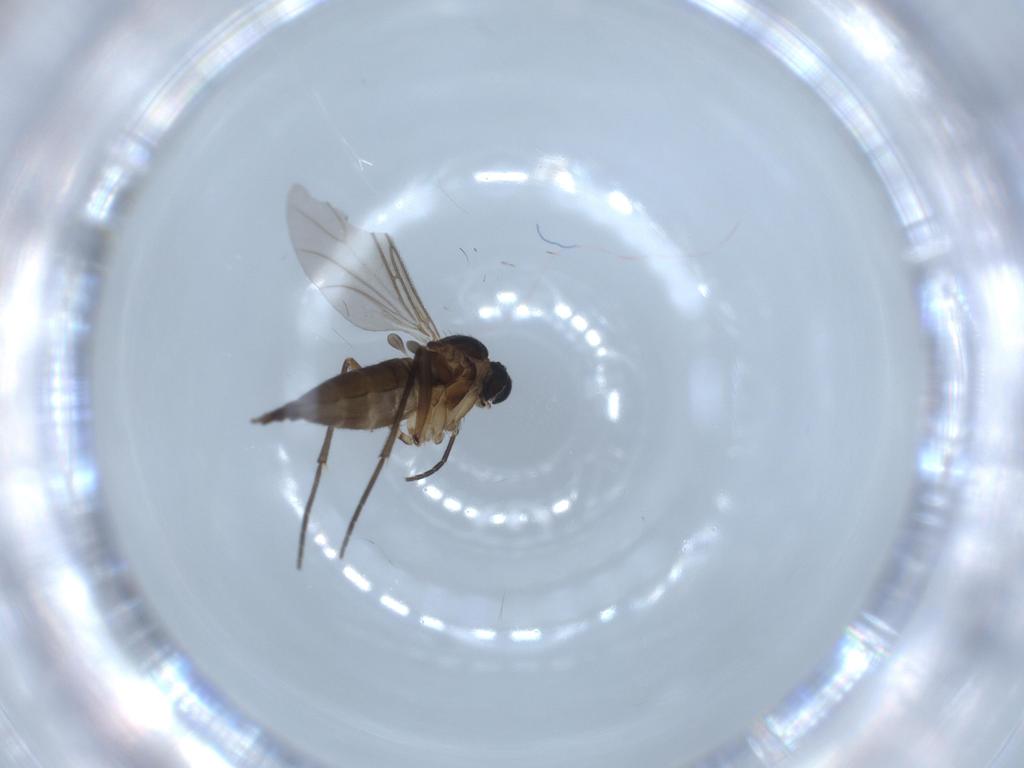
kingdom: Animalia
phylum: Arthropoda
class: Insecta
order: Diptera
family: Sciaridae
